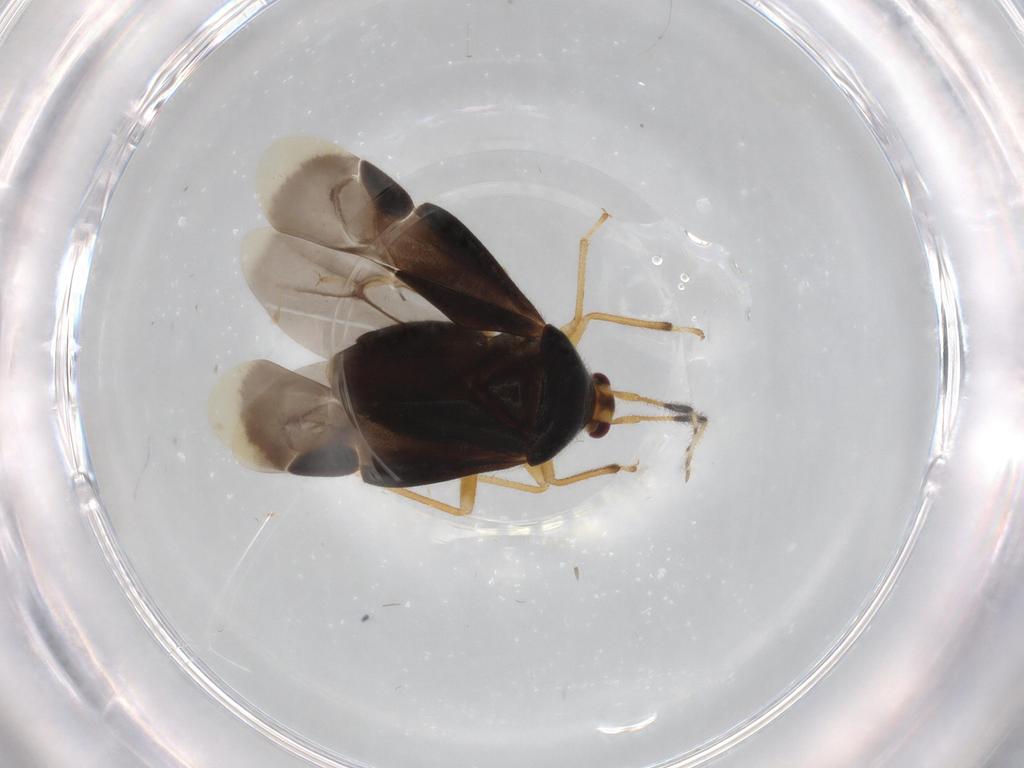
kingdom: Animalia
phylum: Arthropoda
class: Insecta
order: Hemiptera
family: Miridae
